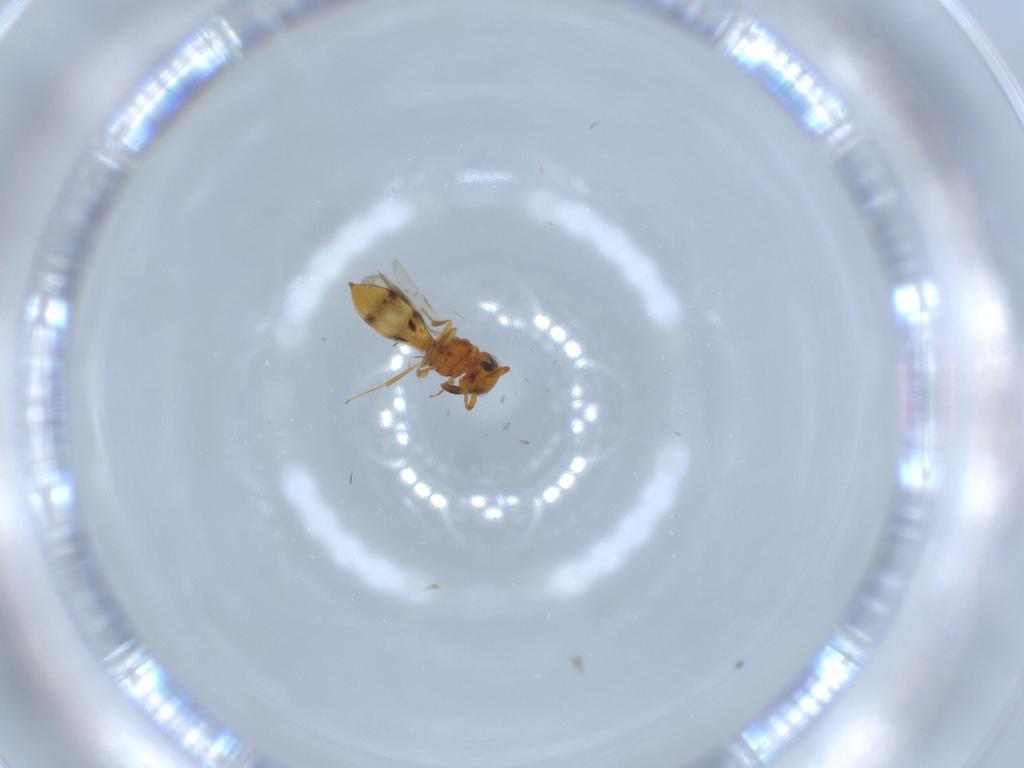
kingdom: Animalia
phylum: Arthropoda
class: Insecta
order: Hymenoptera
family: Scelionidae
